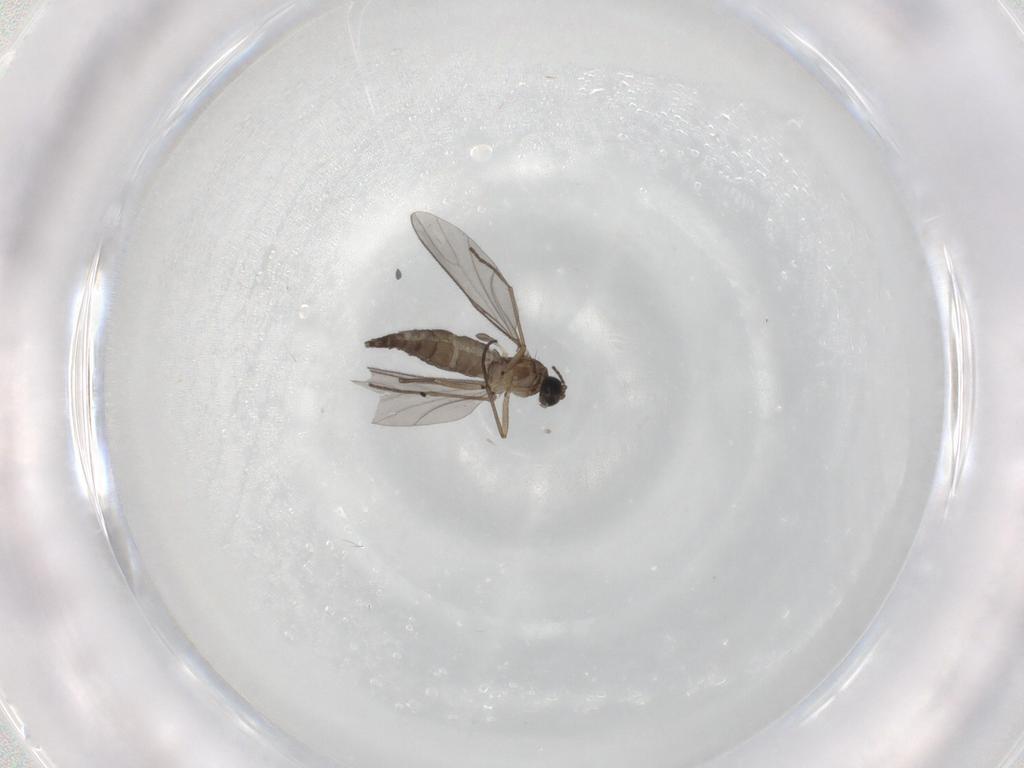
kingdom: Animalia
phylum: Arthropoda
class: Insecta
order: Diptera
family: Sciaridae
